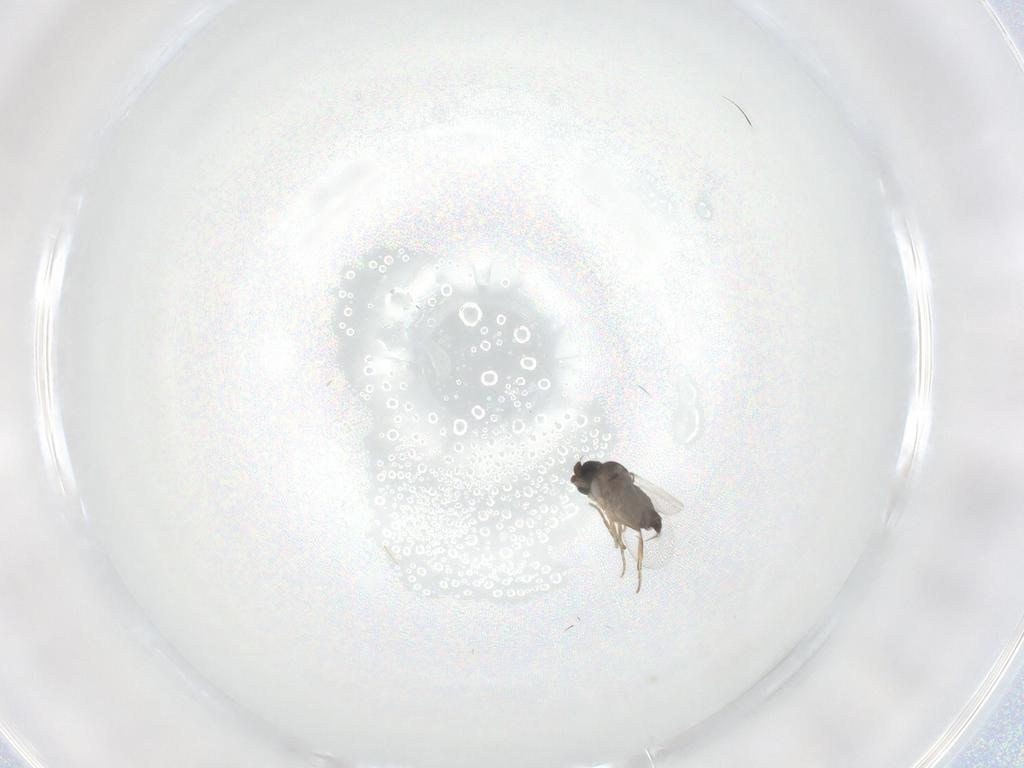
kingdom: Animalia
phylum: Arthropoda
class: Insecta
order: Diptera
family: Phoridae
